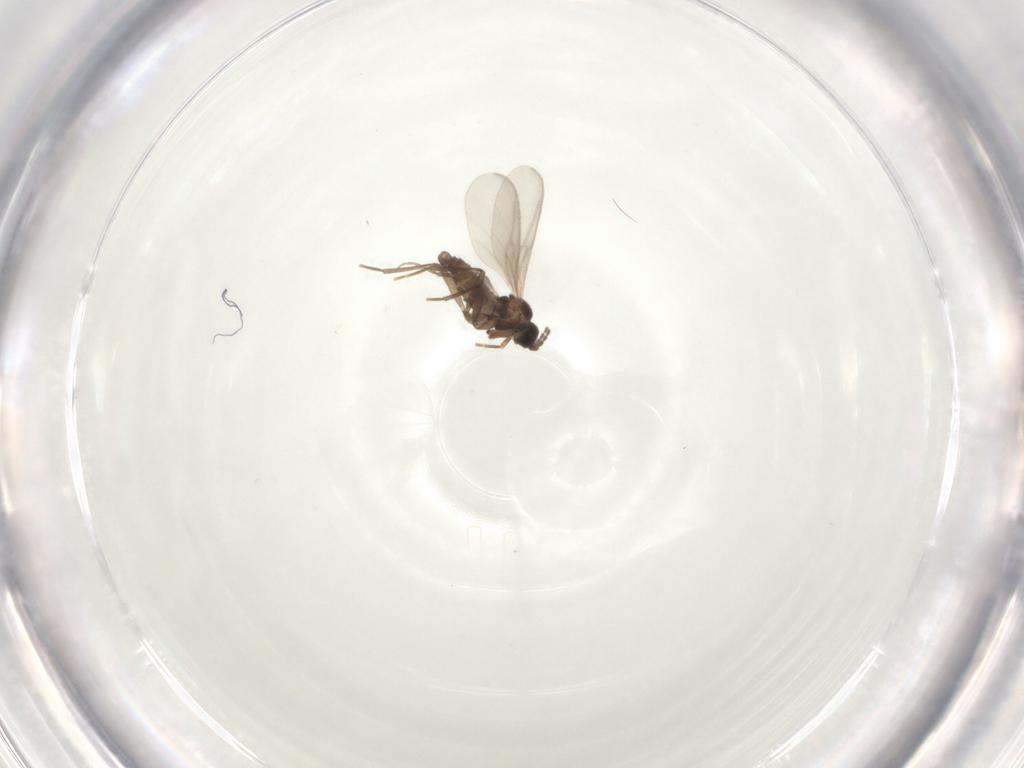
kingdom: Animalia
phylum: Arthropoda
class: Insecta
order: Diptera
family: Sciaridae
